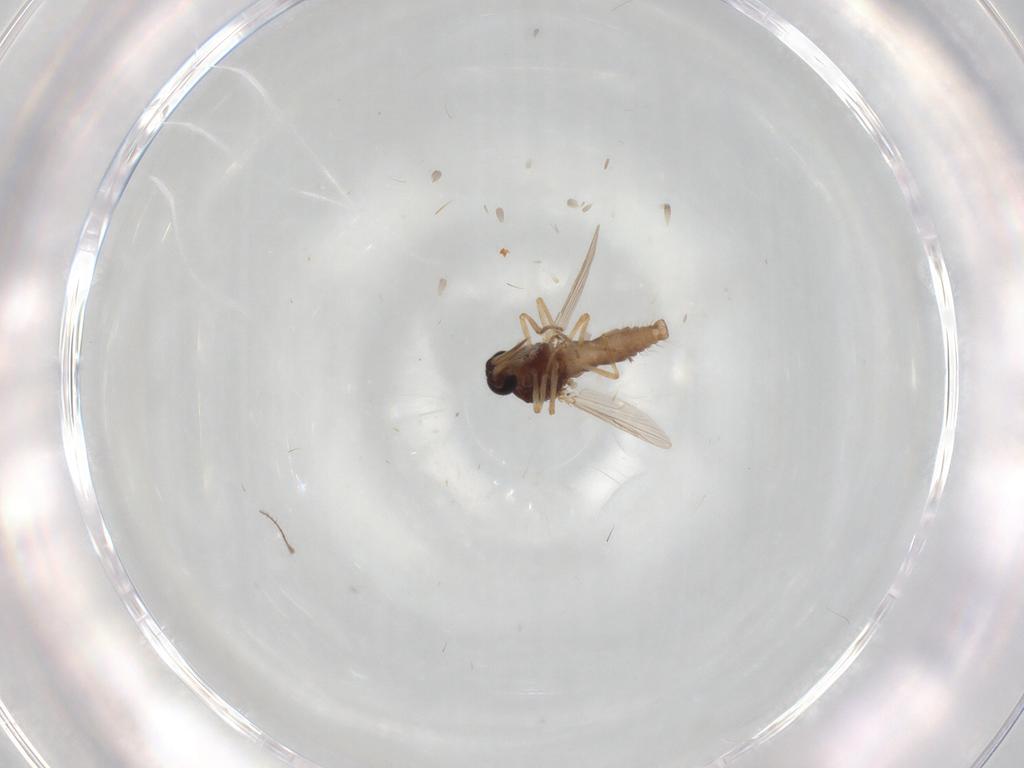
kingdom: Animalia
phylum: Arthropoda
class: Insecta
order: Diptera
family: Ceratopogonidae
